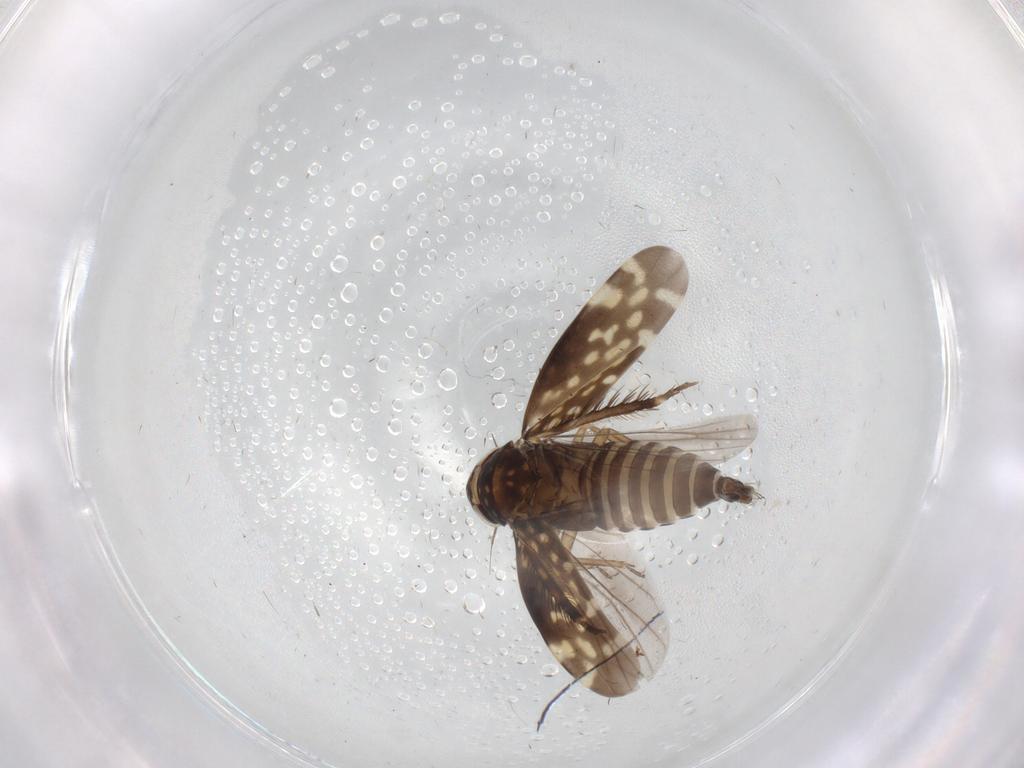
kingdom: Animalia
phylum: Arthropoda
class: Insecta
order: Hemiptera
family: Cicadellidae
